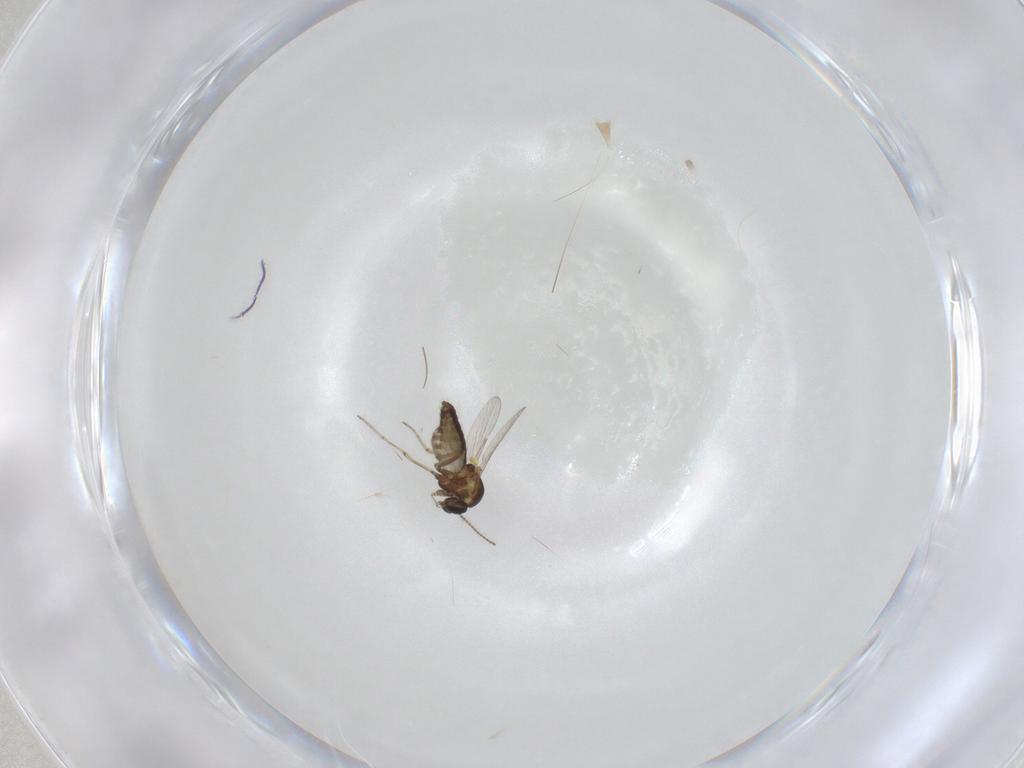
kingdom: Animalia
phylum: Arthropoda
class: Insecta
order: Diptera
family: Ceratopogonidae
